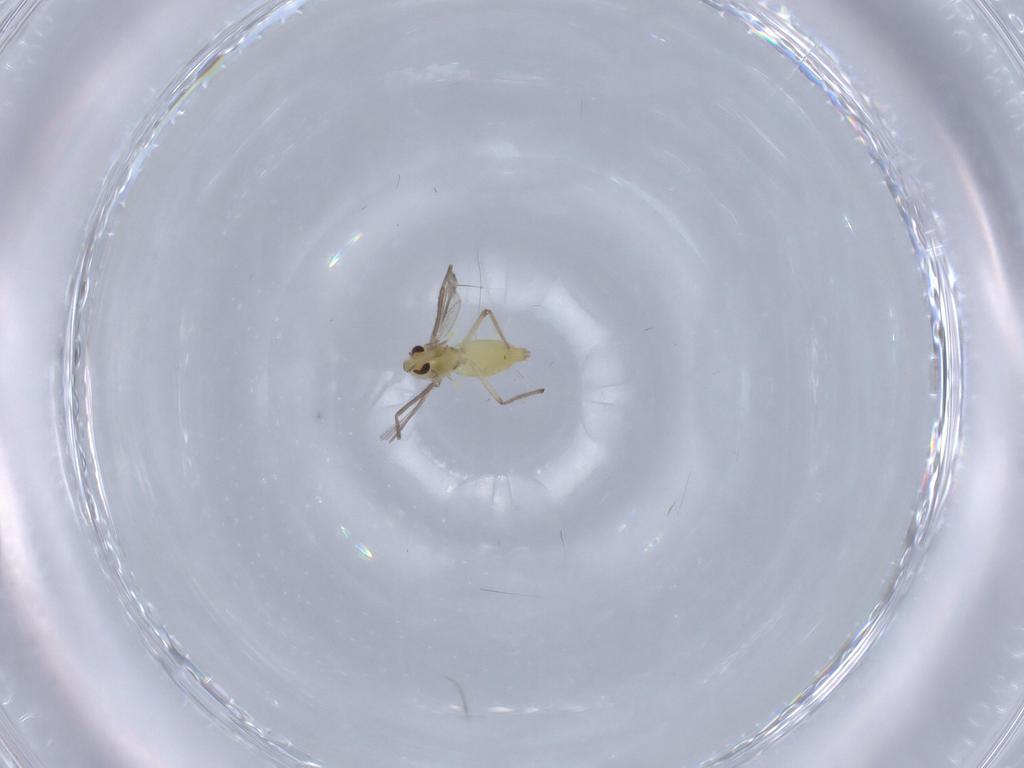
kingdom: Animalia
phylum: Arthropoda
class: Insecta
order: Diptera
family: Chironomidae
